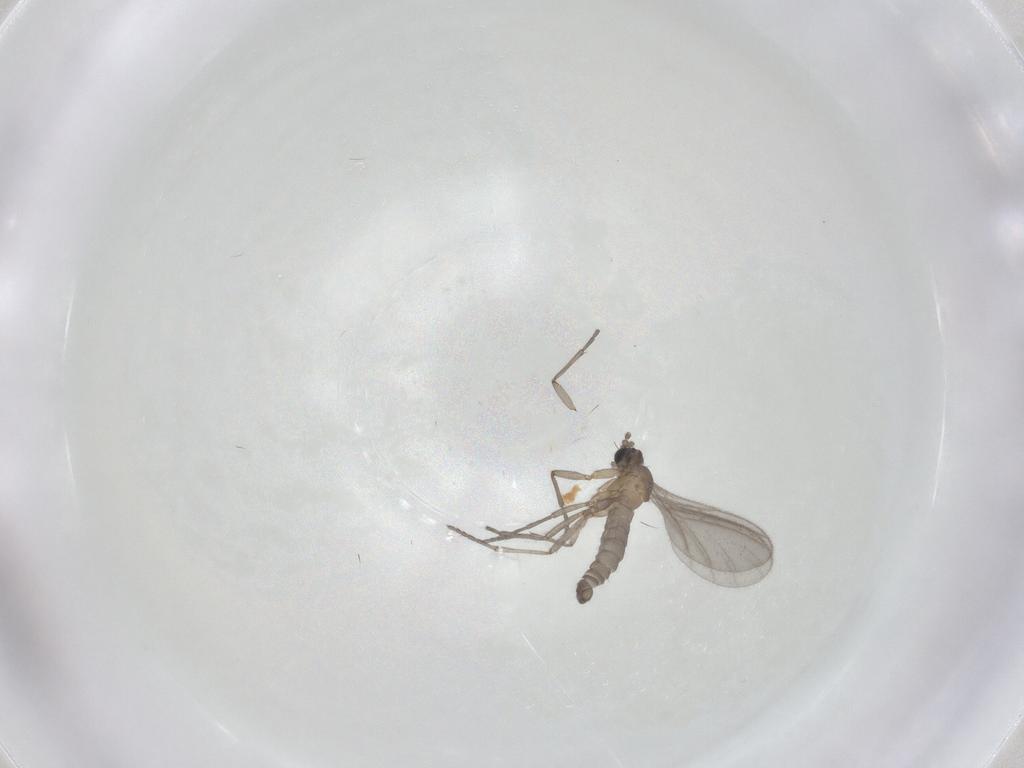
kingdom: Animalia
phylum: Arthropoda
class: Insecta
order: Diptera
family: Sciaridae
